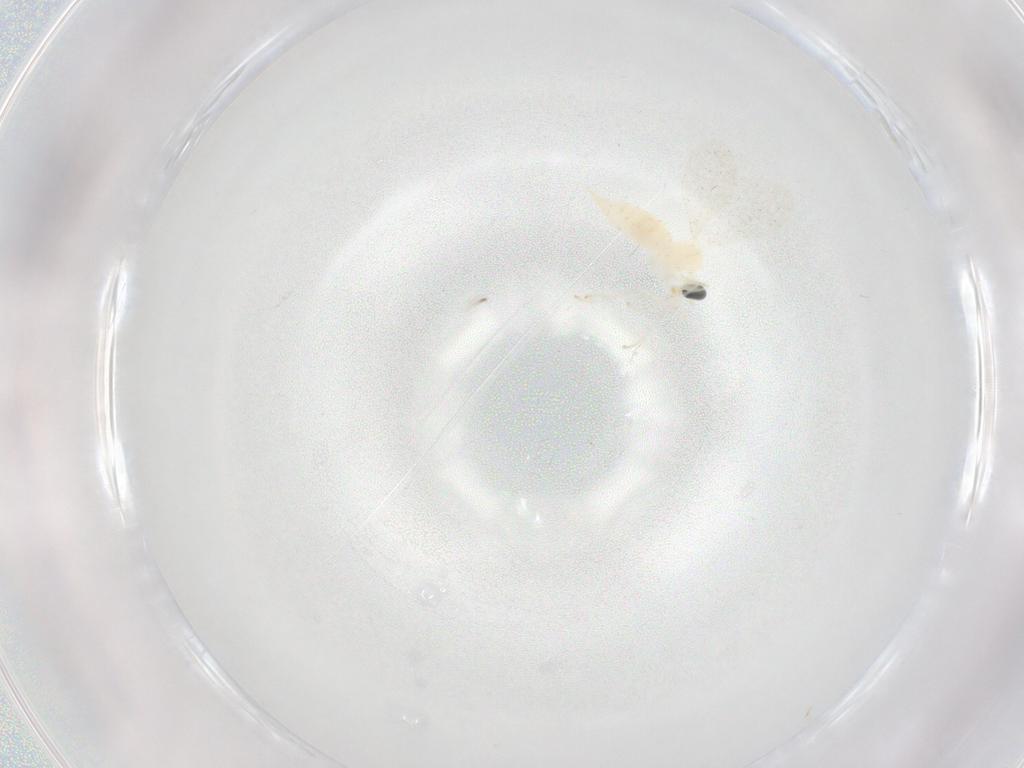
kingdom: Animalia
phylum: Arthropoda
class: Insecta
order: Diptera
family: Cecidomyiidae
